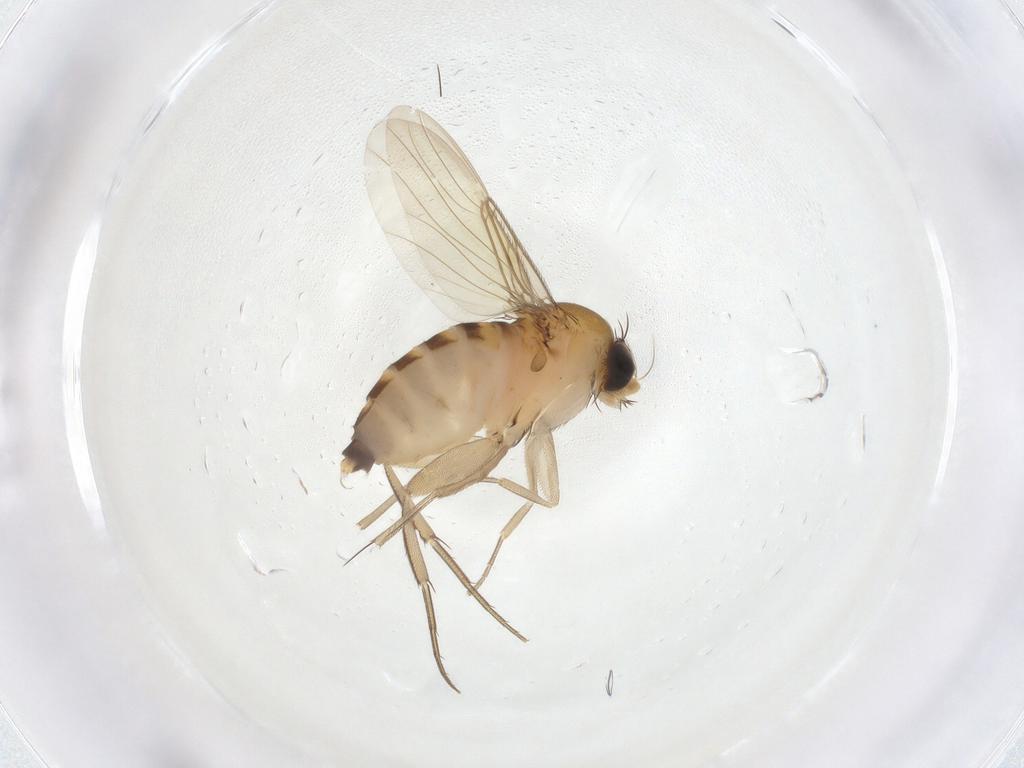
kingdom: Animalia
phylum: Arthropoda
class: Insecta
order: Diptera
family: Phoridae
